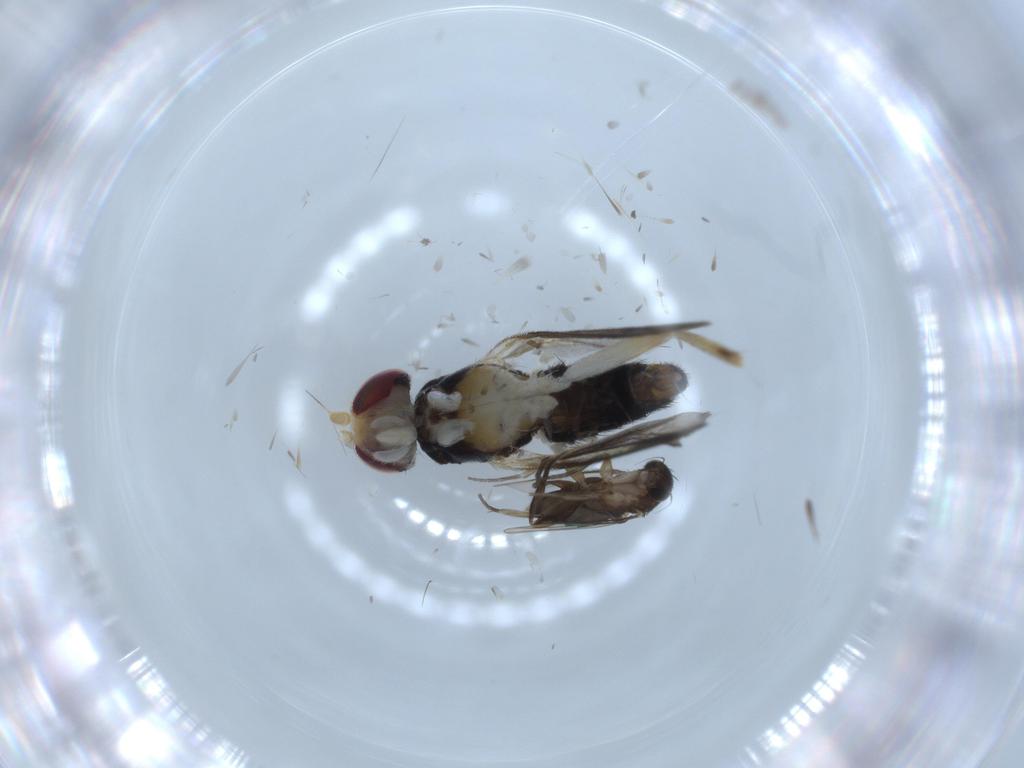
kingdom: Animalia
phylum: Arthropoda
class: Insecta
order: Diptera
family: Phoridae
